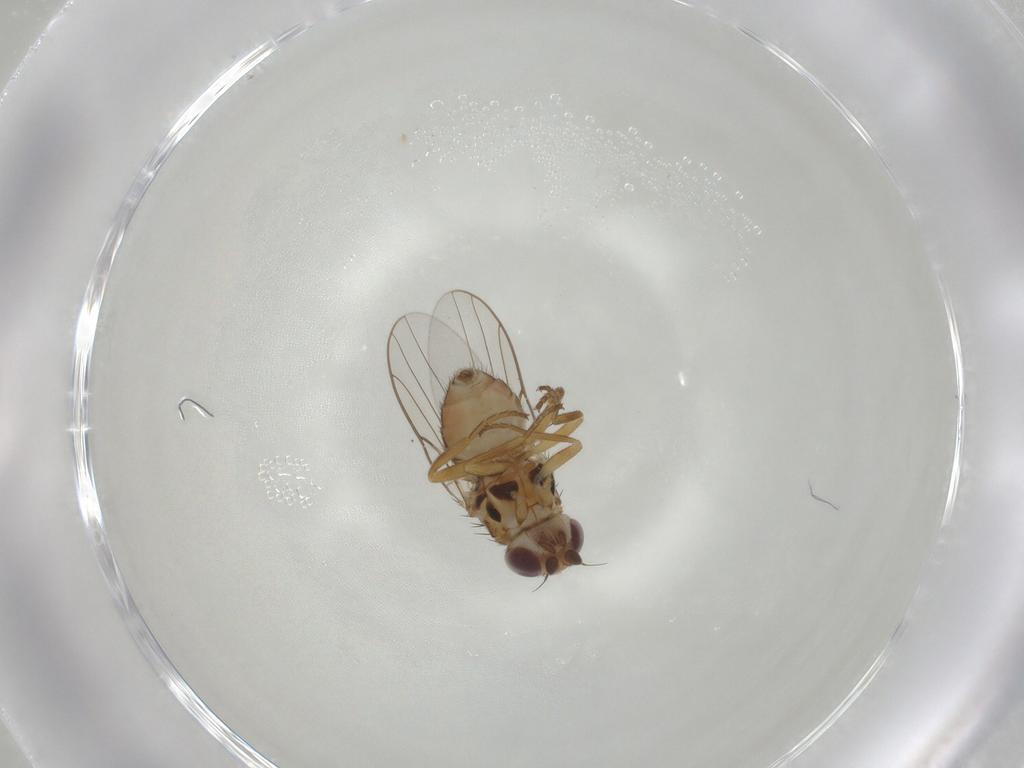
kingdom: Animalia
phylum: Arthropoda
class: Insecta
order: Diptera
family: Chloropidae
